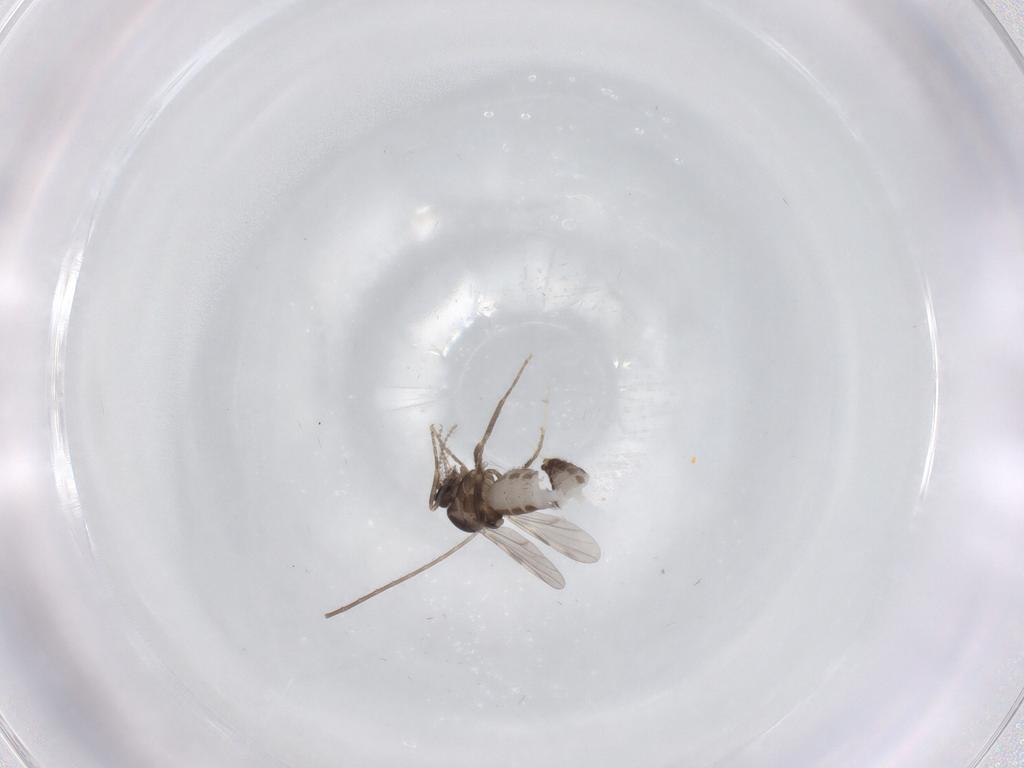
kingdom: Animalia
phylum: Arthropoda
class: Insecta
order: Diptera
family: Ceratopogonidae
